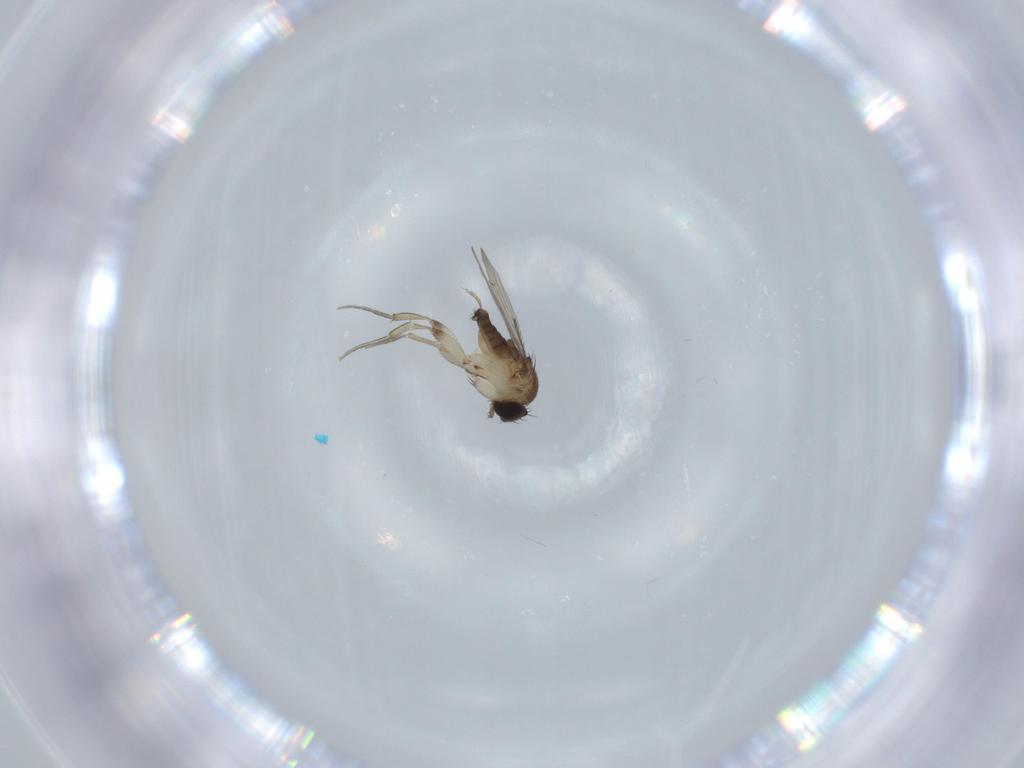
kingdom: Animalia
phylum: Arthropoda
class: Insecta
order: Diptera
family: Phoridae
